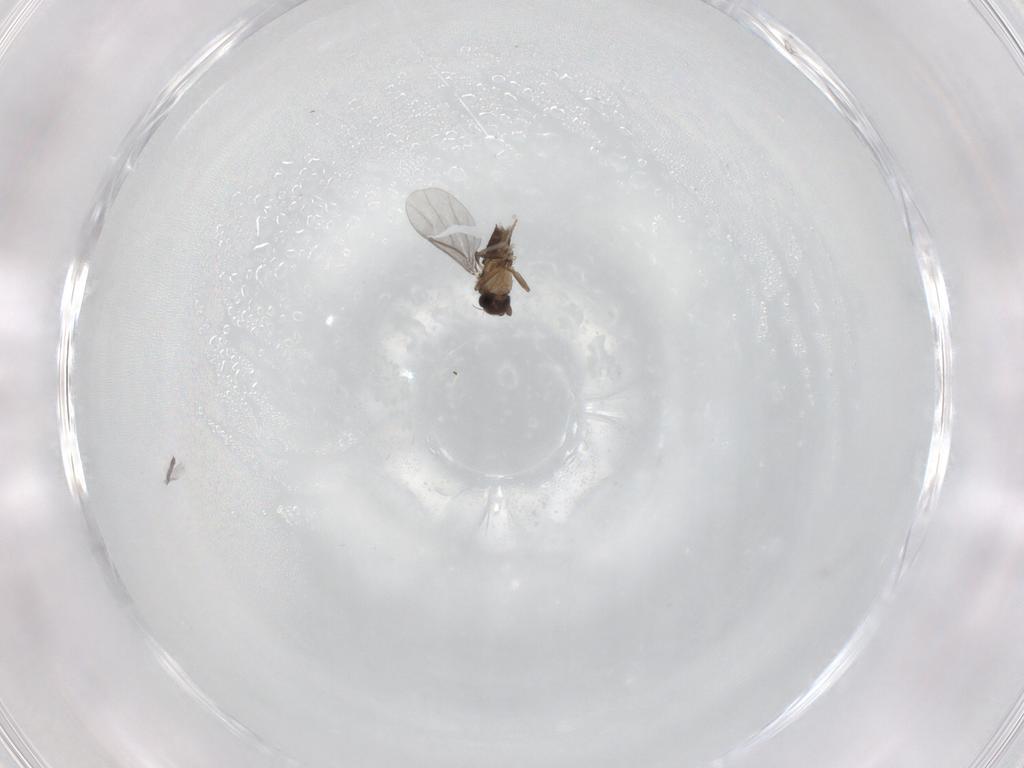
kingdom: Animalia
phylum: Arthropoda
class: Insecta
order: Diptera
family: Dolichopodidae
